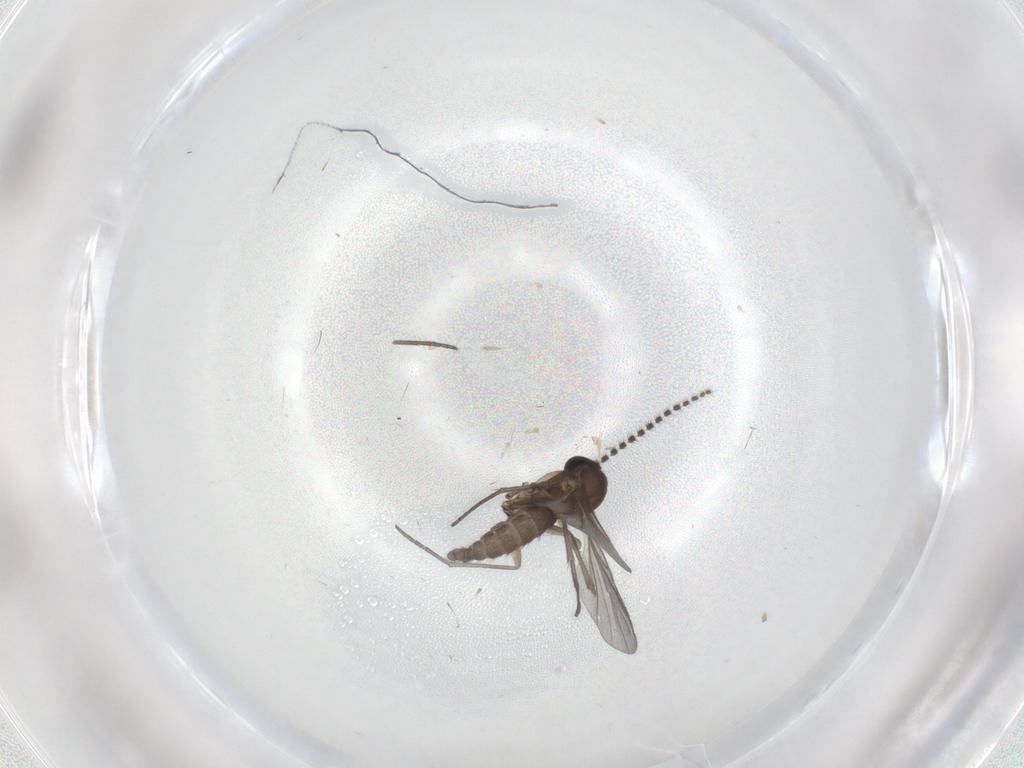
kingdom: Animalia
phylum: Arthropoda
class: Insecta
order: Diptera
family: Sciaridae
